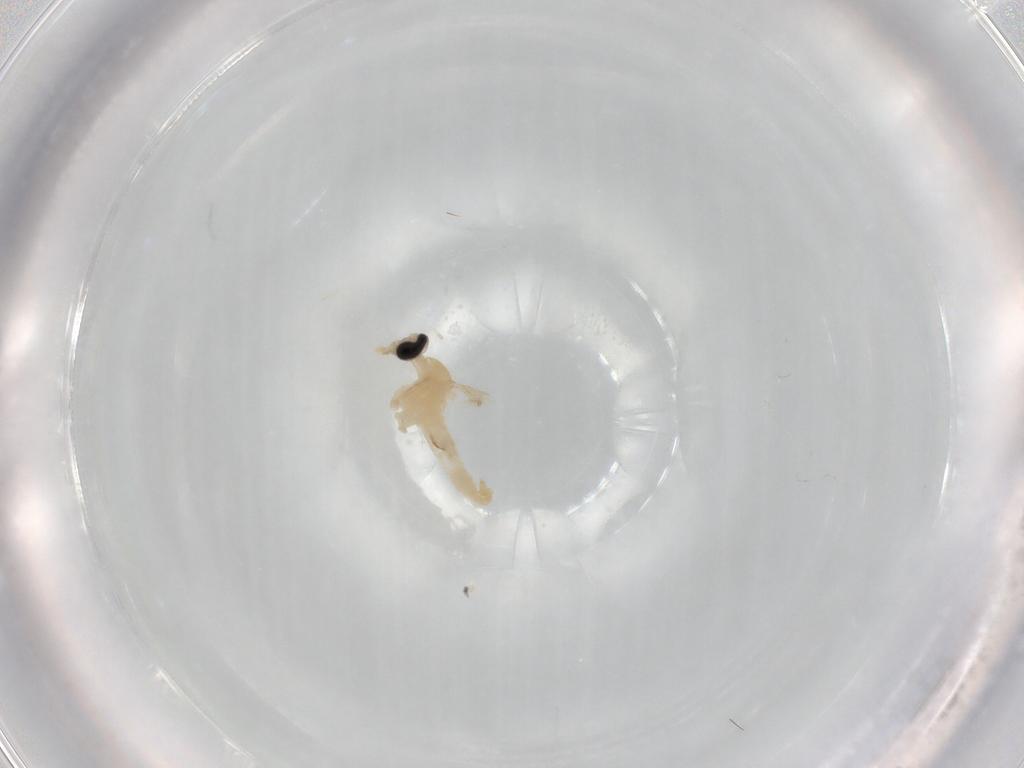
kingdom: Animalia
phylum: Arthropoda
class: Insecta
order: Diptera
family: Cecidomyiidae
